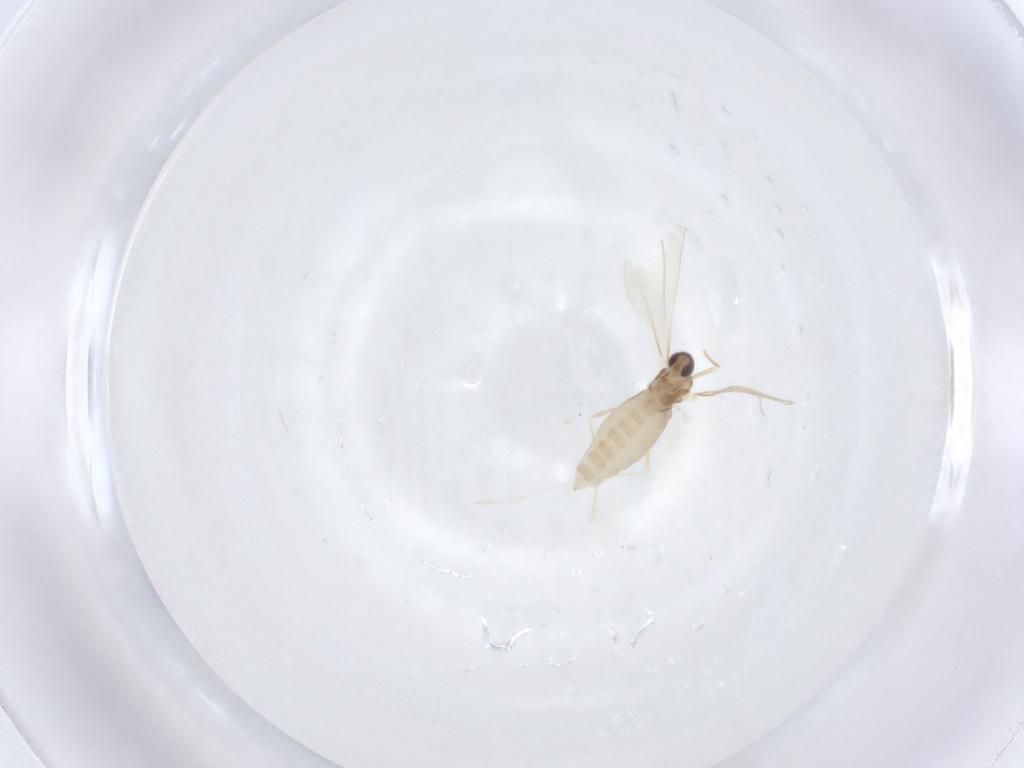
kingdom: Animalia
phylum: Arthropoda
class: Insecta
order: Diptera
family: Cecidomyiidae
